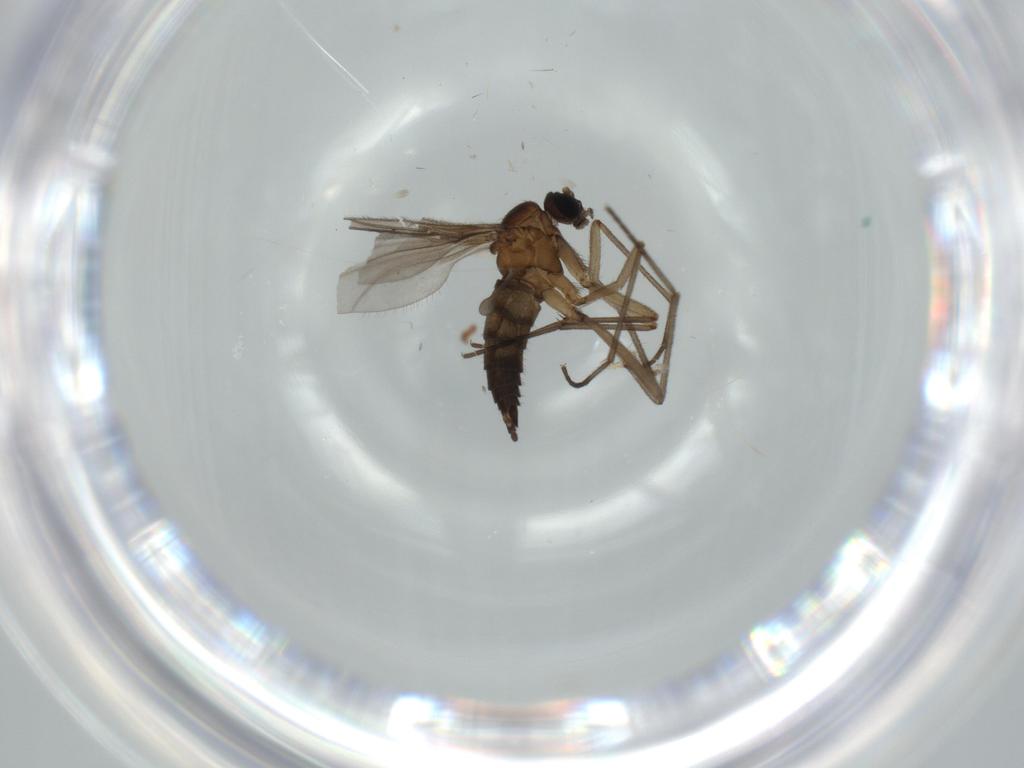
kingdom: Animalia
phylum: Arthropoda
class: Insecta
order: Diptera
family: Sciaridae
